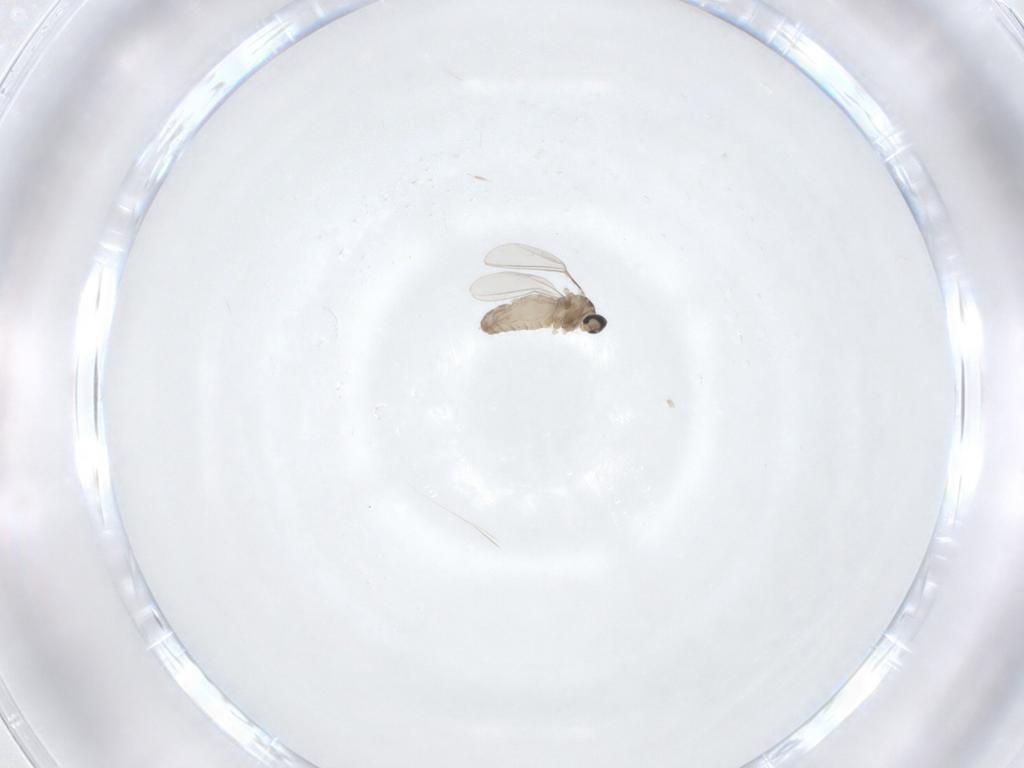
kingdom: Animalia
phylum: Arthropoda
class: Insecta
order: Diptera
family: Cecidomyiidae
